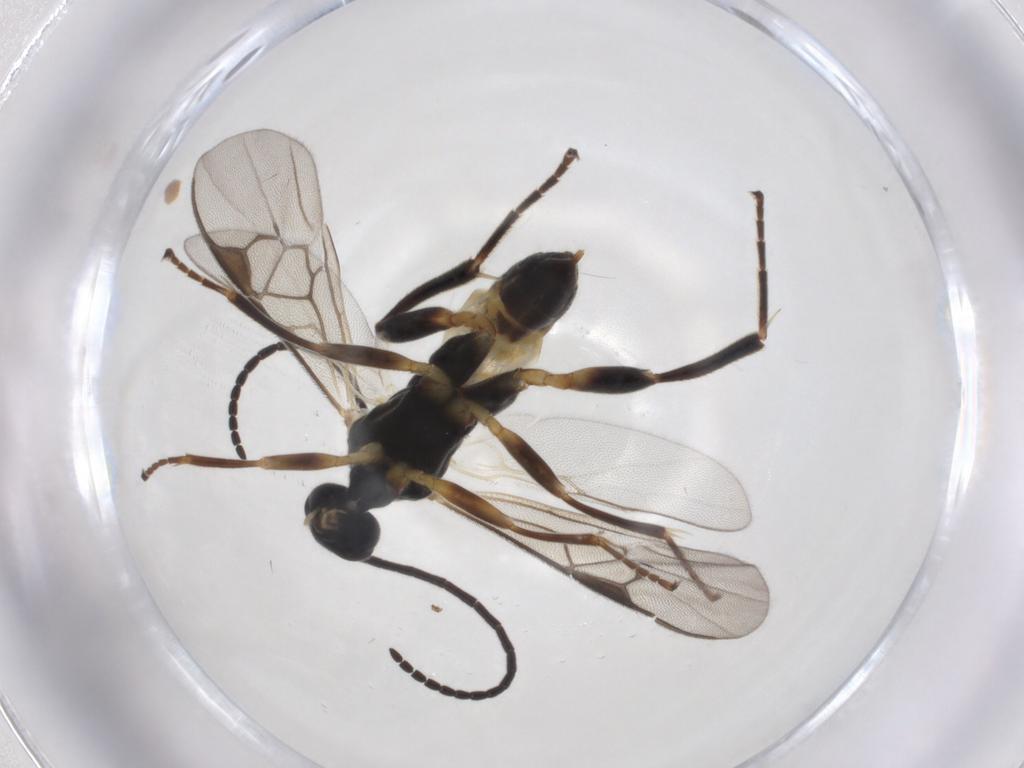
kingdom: Animalia
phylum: Arthropoda
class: Insecta
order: Hymenoptera
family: Braconidae
